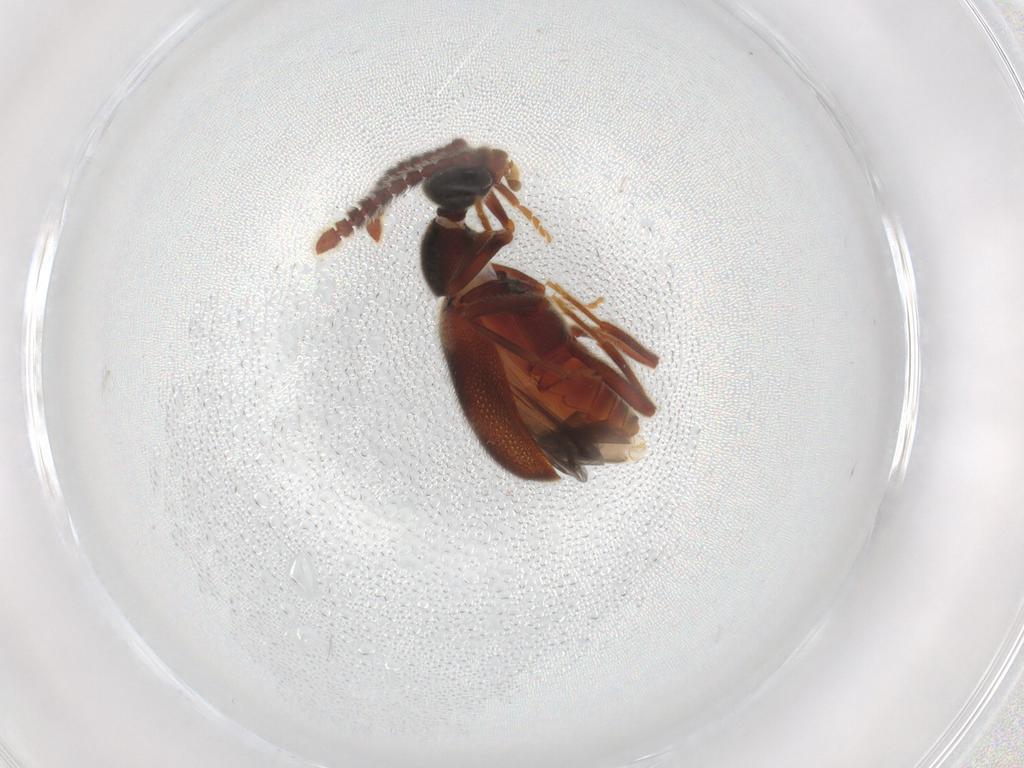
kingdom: Animalia
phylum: Arthropoda
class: Insecta
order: Coleoptera
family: Aderidae
